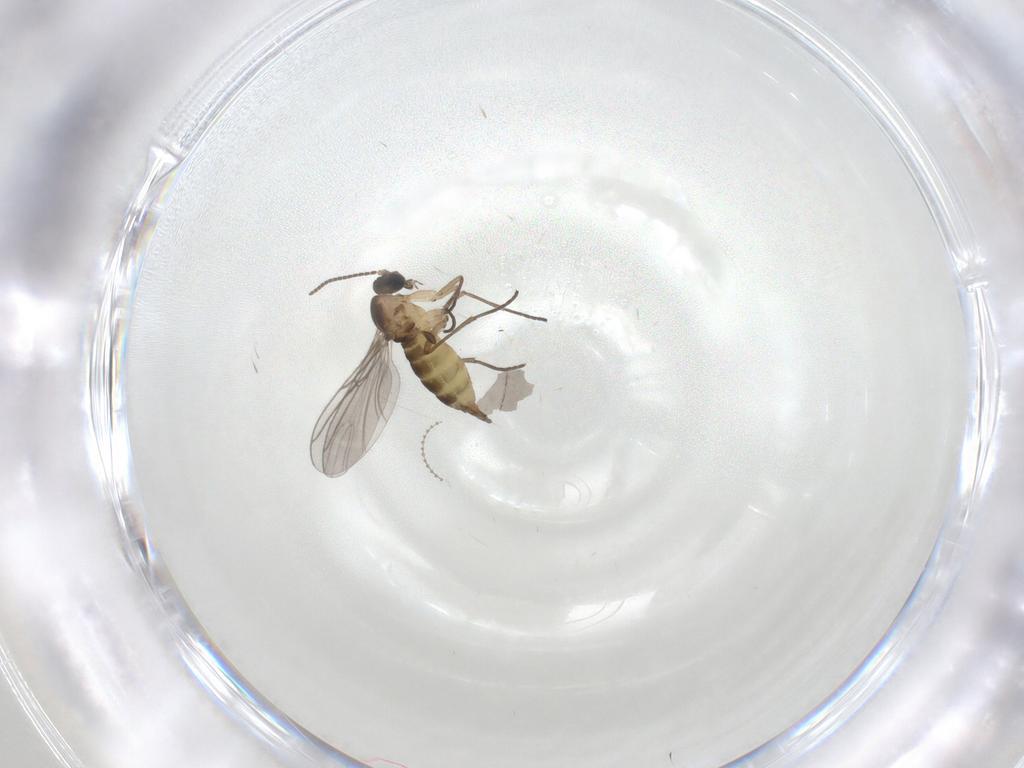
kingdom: Animalia
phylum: Arthropoda
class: Insecta
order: Diptera
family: Sciaridae
